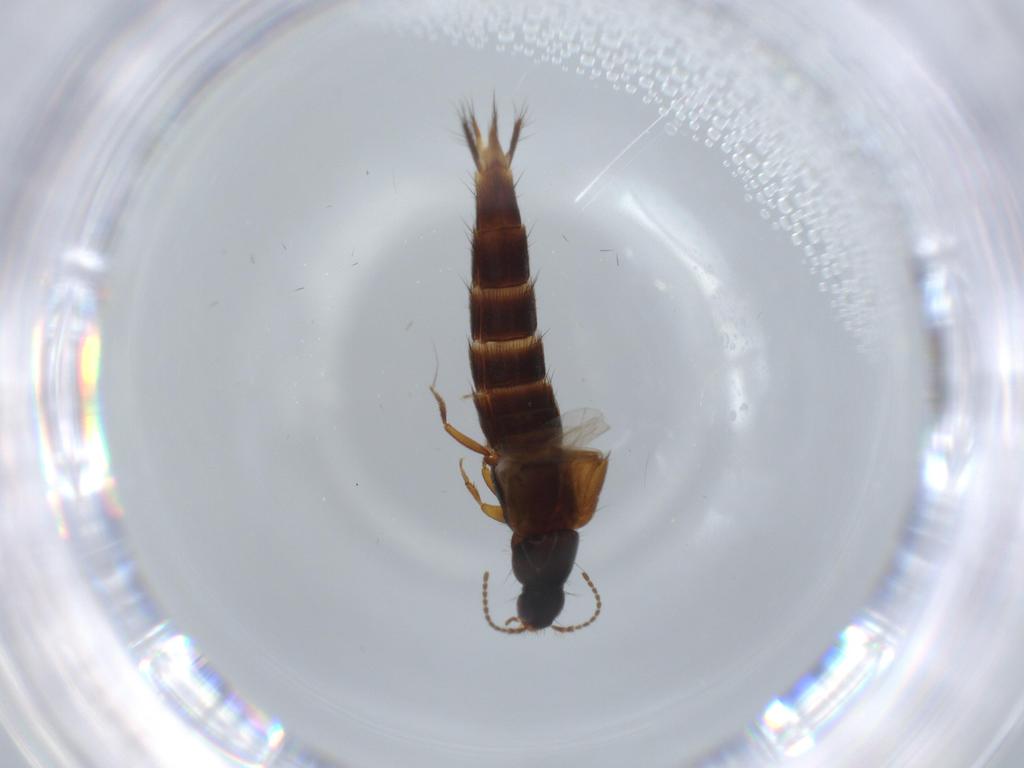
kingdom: Animalia
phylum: Arthropoda
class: Insecta
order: Coleoptera
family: Staphylinidae
